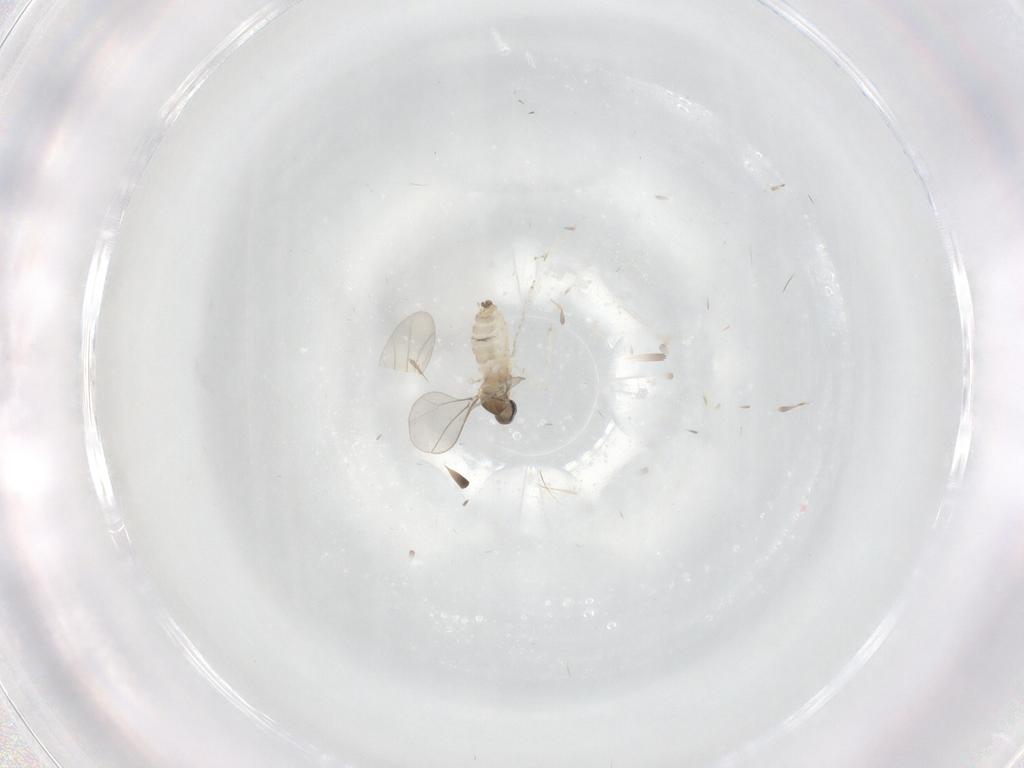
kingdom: Animalia
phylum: Arthropoda
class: Insecta
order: Diptera
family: Cecidomyiidae
